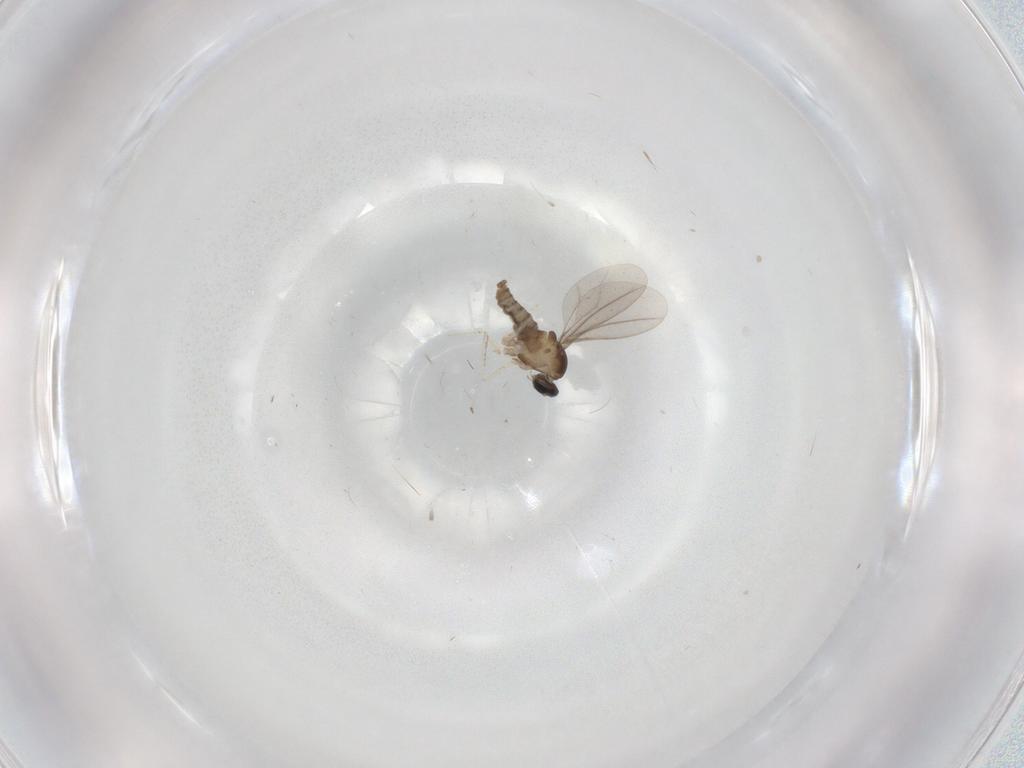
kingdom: Animalia
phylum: Arthropoda
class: Insecta
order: Diptera
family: Cecidomyiidae
